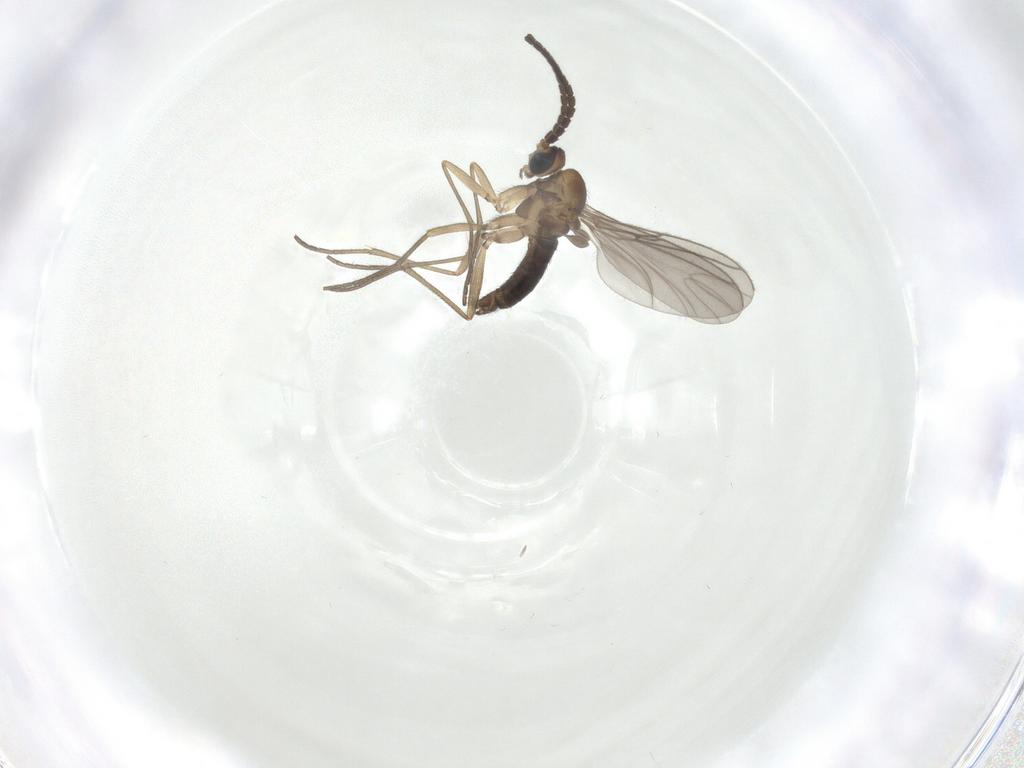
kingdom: Animalia
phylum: Arthropoda
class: Insecta
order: Diptera
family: Sciaridae
